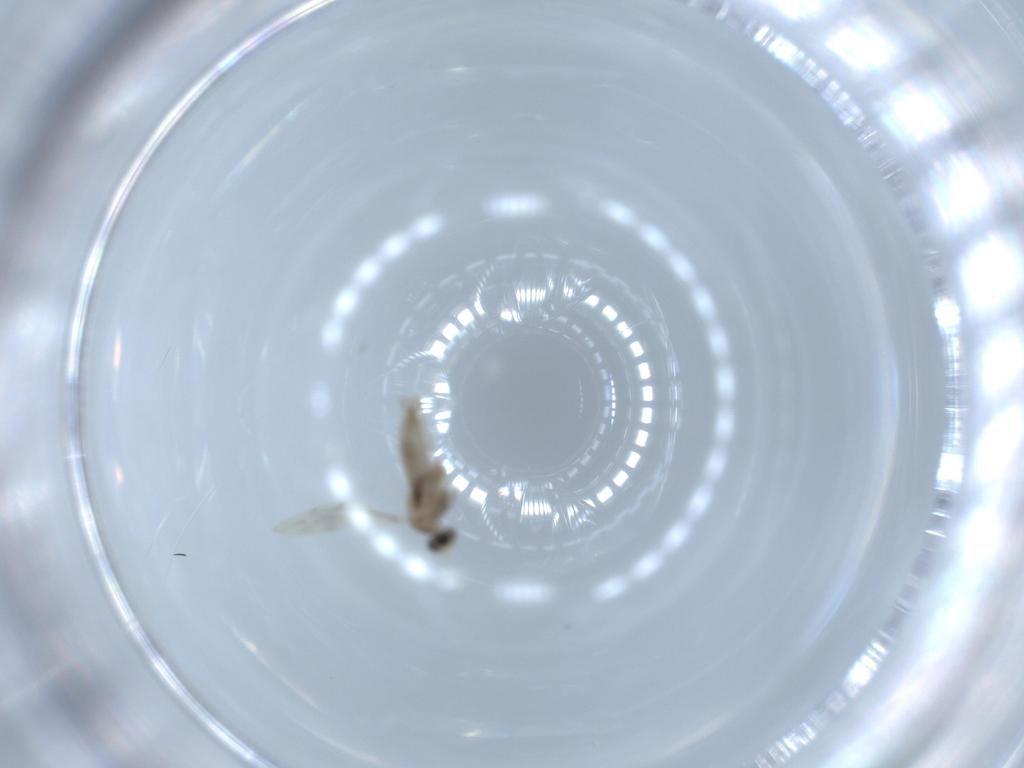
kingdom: Animalia
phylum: Arthropoda
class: Insecta
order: Diptera
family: Cecidomyiidae
